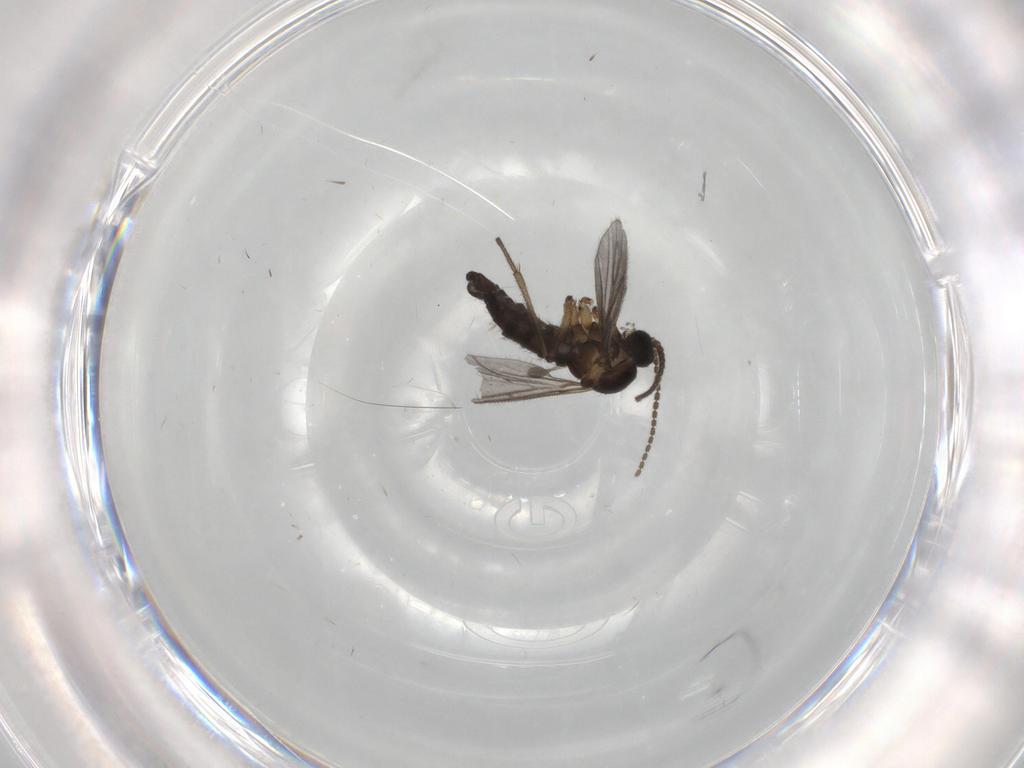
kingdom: Animalia
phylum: Arthropoda
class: Insecta
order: Diptera
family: Sciaridae
